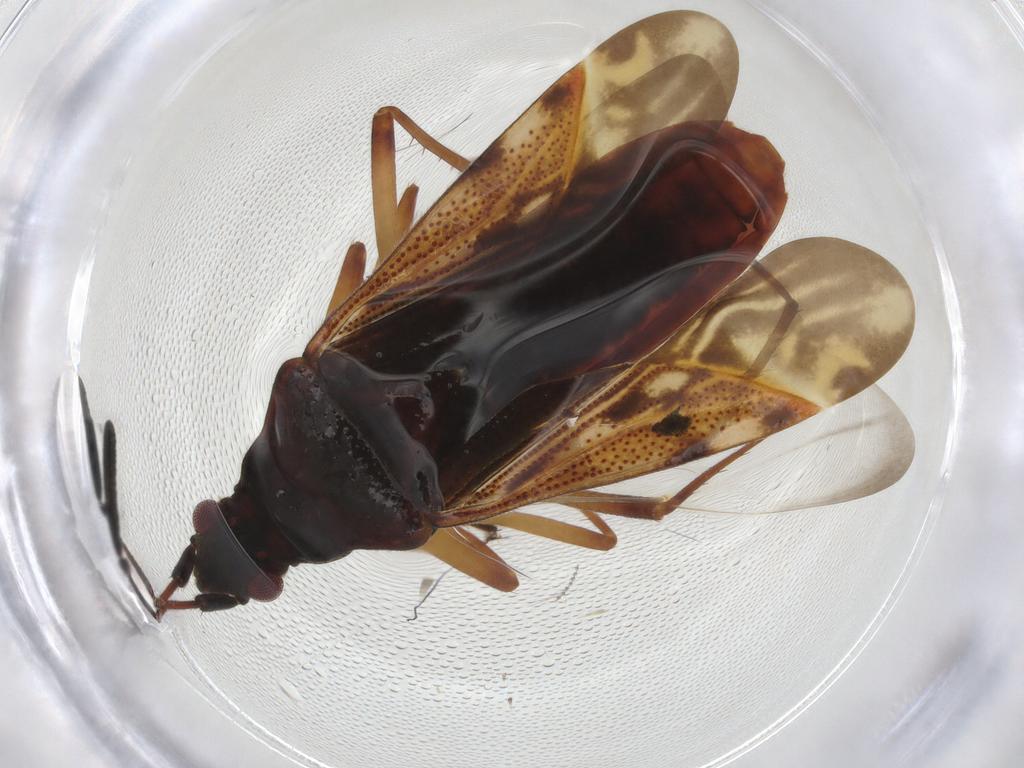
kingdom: Animalia
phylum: Arthropoda
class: Insecta
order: Hemiptera
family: Rhyparochromidae
